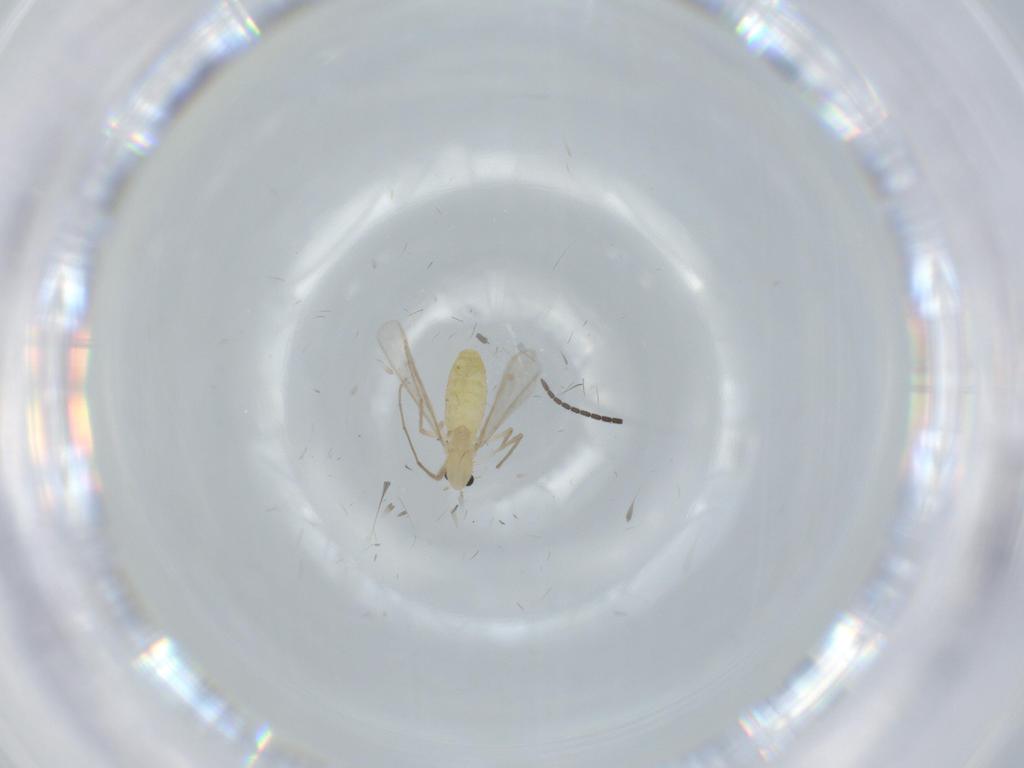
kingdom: Animalia
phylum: Arthropoda
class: Insecta
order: Diptera
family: Sciaridae
